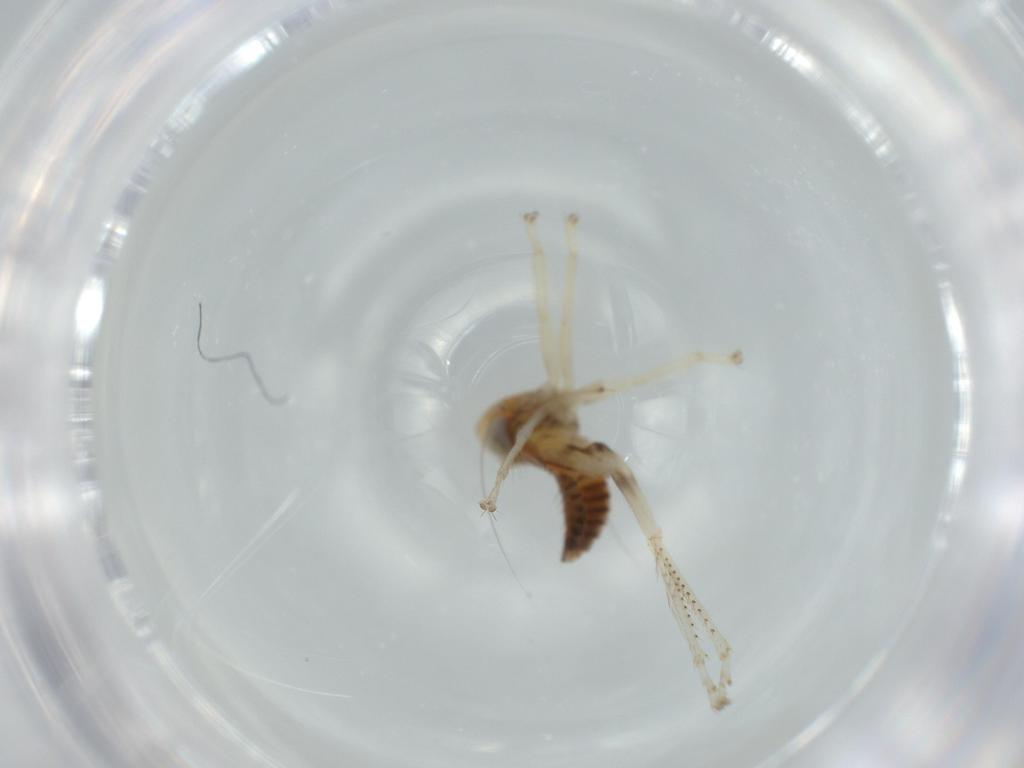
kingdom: Animalia
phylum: Arthropoda
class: Insecta
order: Hemiptera
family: Cicadellidae
